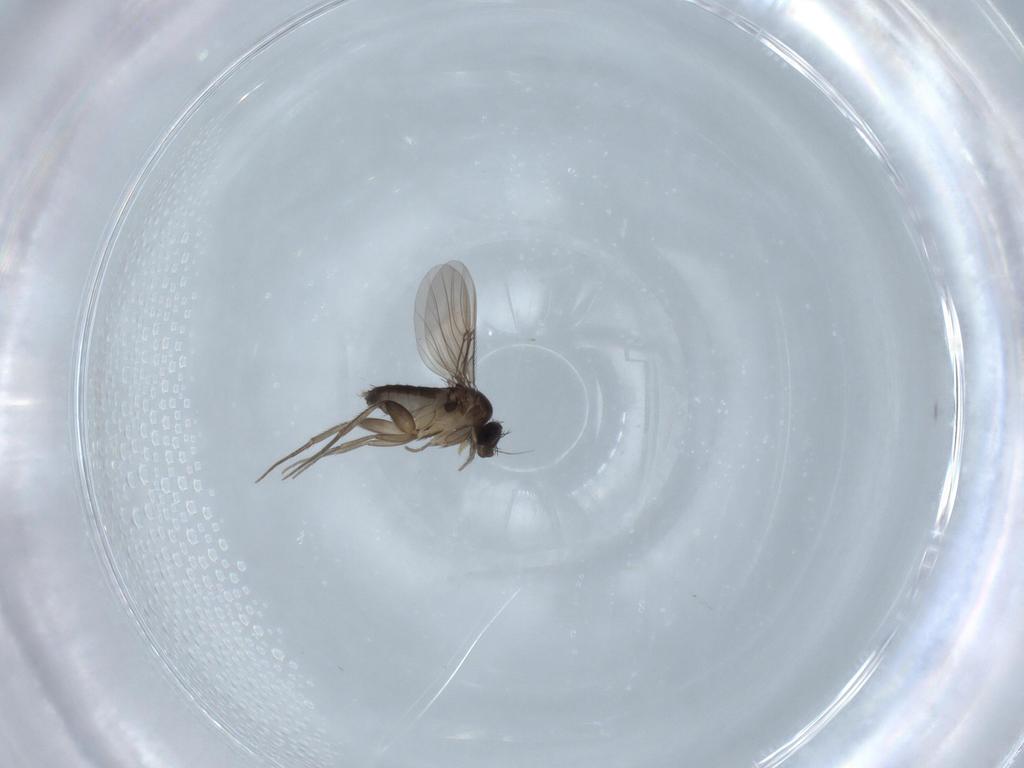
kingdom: Animalia
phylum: Arthropoda
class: Insecta
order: Diptera
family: Phoridae
